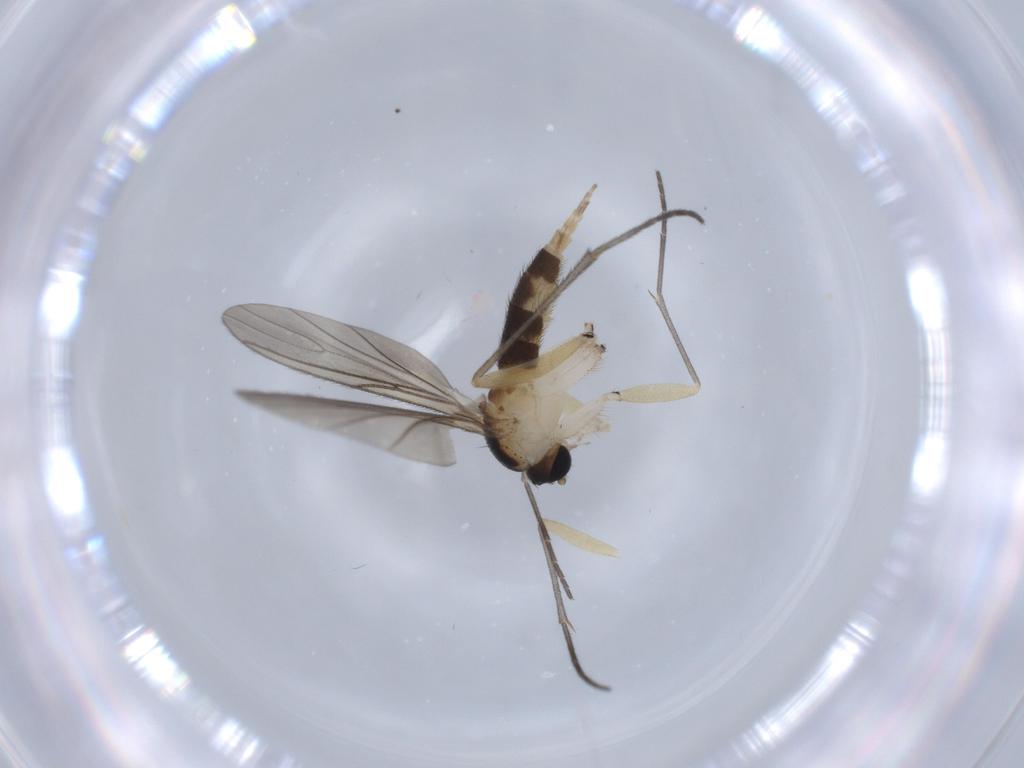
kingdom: Animalia
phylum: Arthropoda
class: Insecta
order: Diptera
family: Sciaridae
